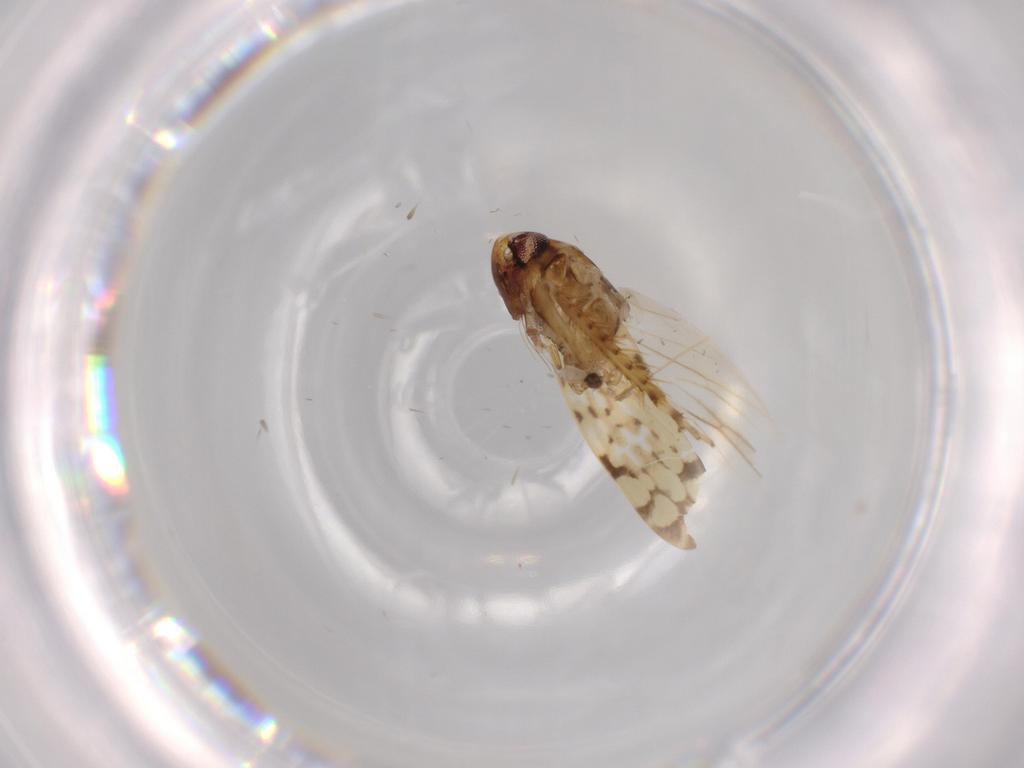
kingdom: Animalia
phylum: Arthropoda
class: Insecta
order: Hemiptera
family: Cicadellidae
